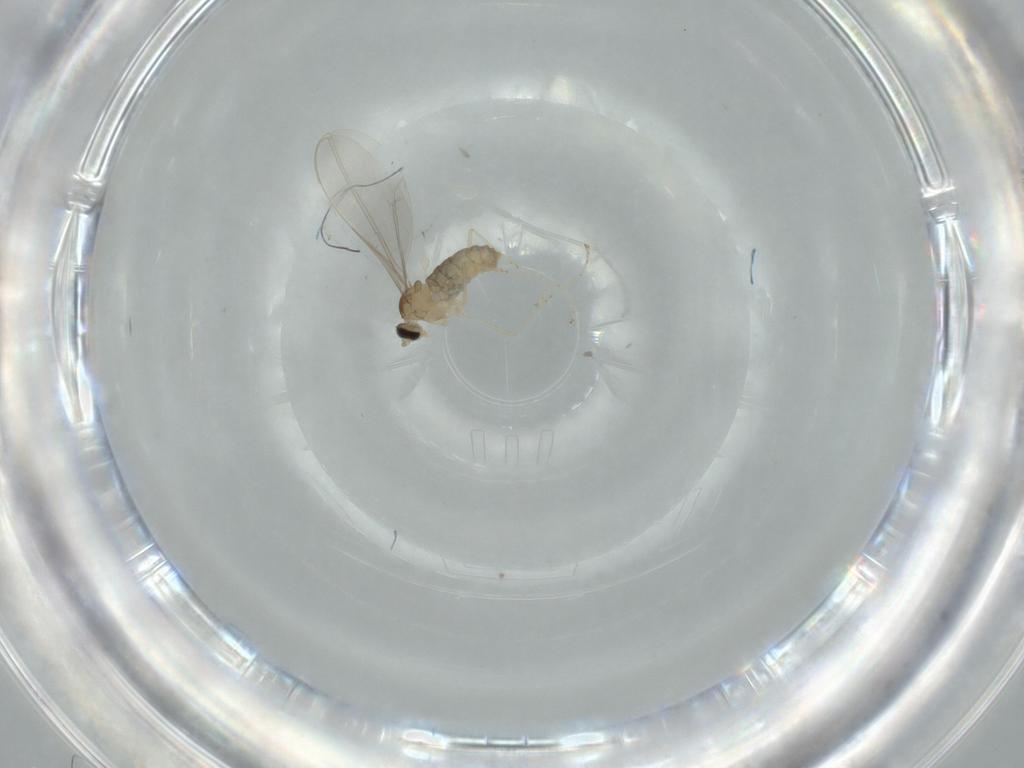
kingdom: Animalia
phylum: Arthropoda
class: Insecta
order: Diptera
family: Cecidomyiidae
